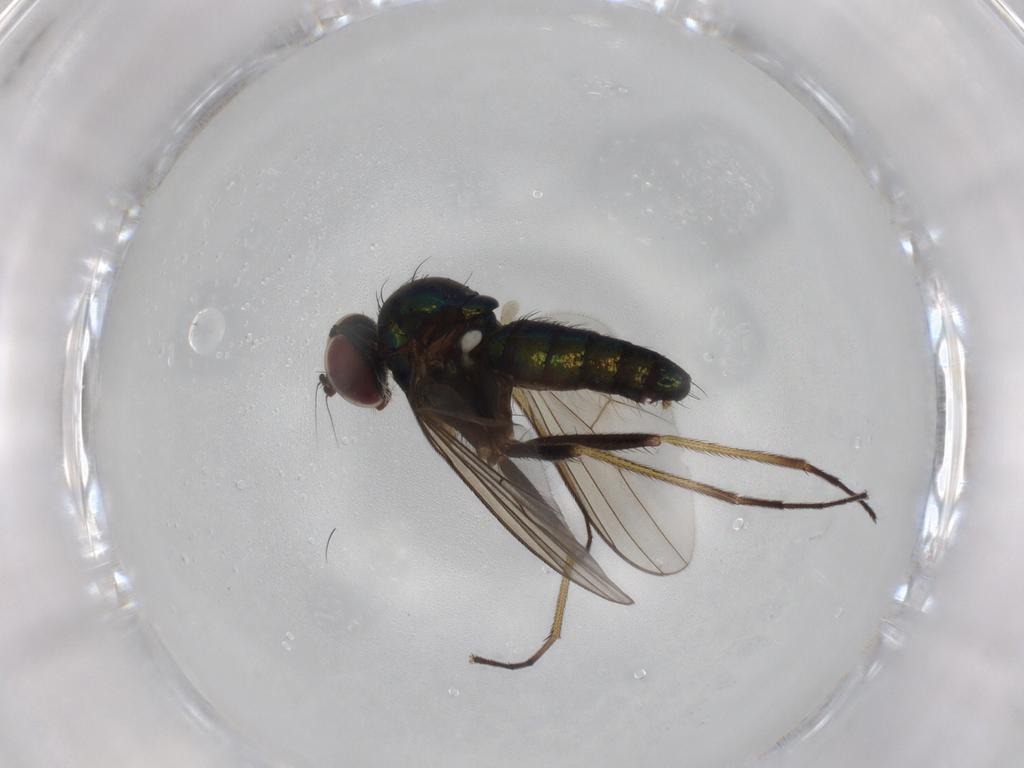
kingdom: Animalia
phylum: Arthropoda
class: Insecta
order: Diptera
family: Dolichopodidae
